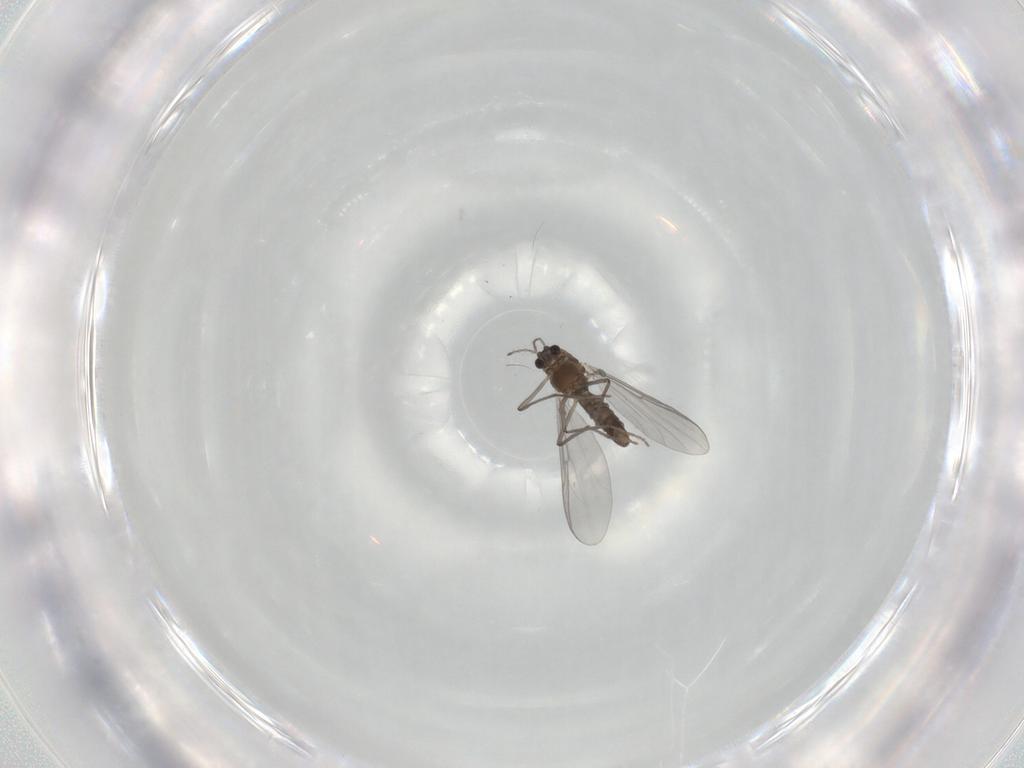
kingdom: Animalia
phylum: Arthropoda
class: Insecta
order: Diptera
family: Chironomidae
